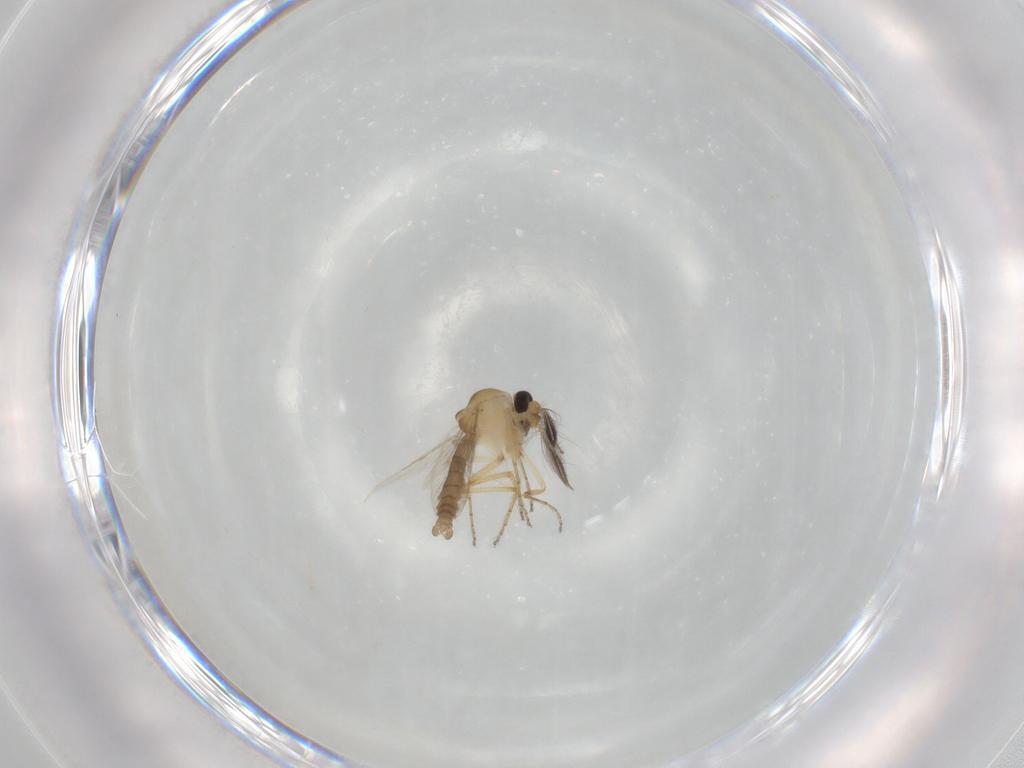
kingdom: Animalia
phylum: Arthropoda
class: Insecta
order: Diptera
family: Ceratopogonidae
